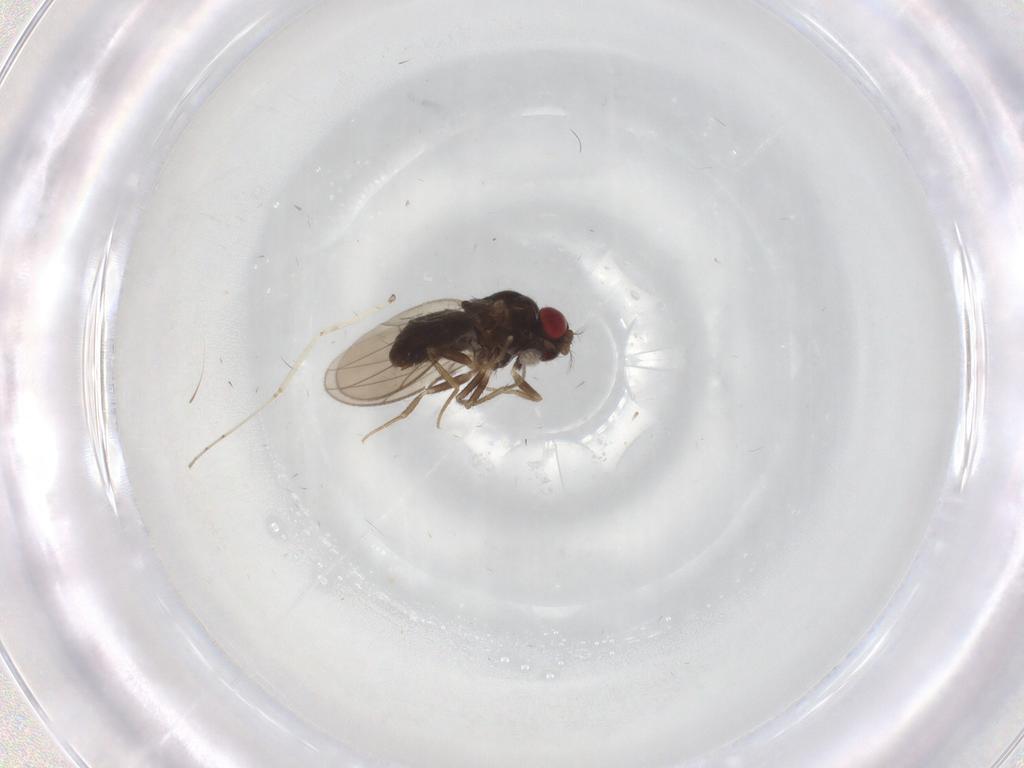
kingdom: Animalia
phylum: Arthropoda
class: Insecta
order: Diptera
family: Drosophilidae
